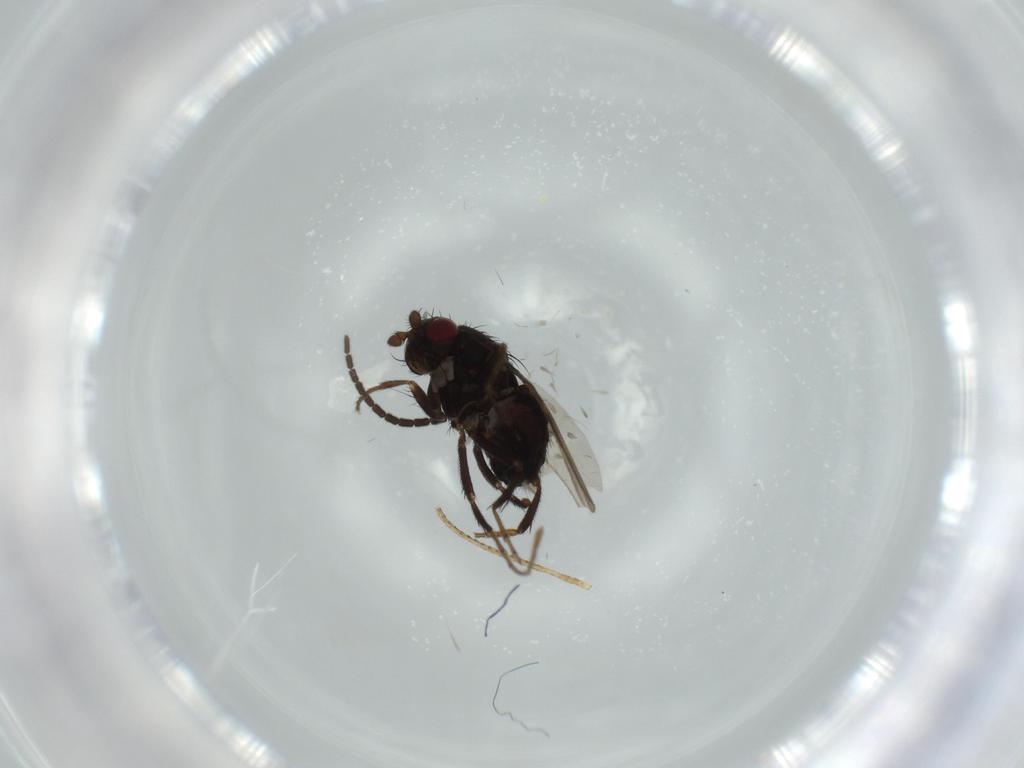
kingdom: Animalia
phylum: Arthropoda
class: Insecta
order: Diptera
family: Sphaeroceridae
